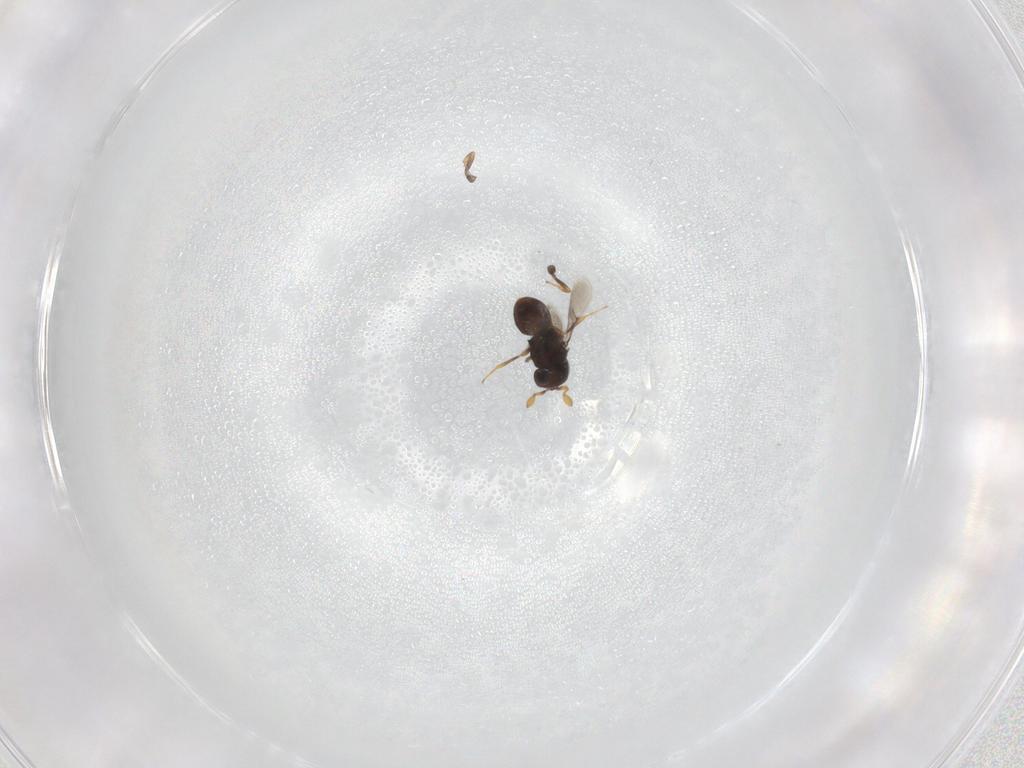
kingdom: Animalia
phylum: Arthropoda
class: Insecta
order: Hymenoptera
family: Scelionidae
